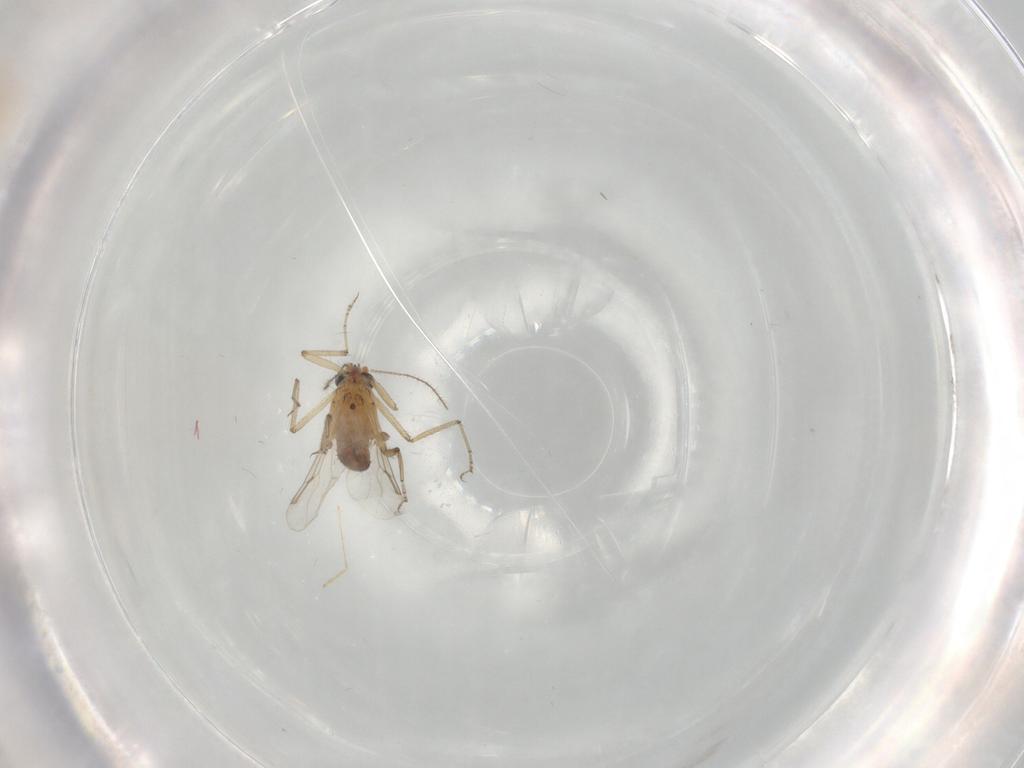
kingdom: Animalia
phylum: Arthropoda
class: Insecta
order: Diptera
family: Ceratopogonidae
